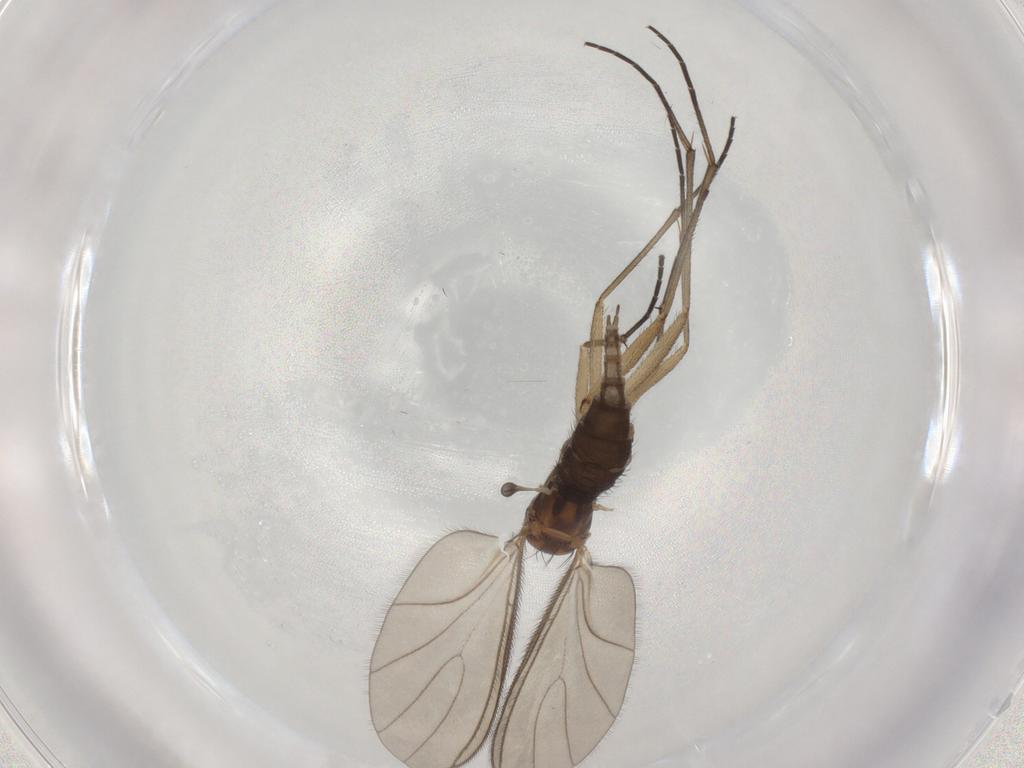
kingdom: Animalia
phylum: Arthropoda
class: Insecta
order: Diptera
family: Sciaridae
